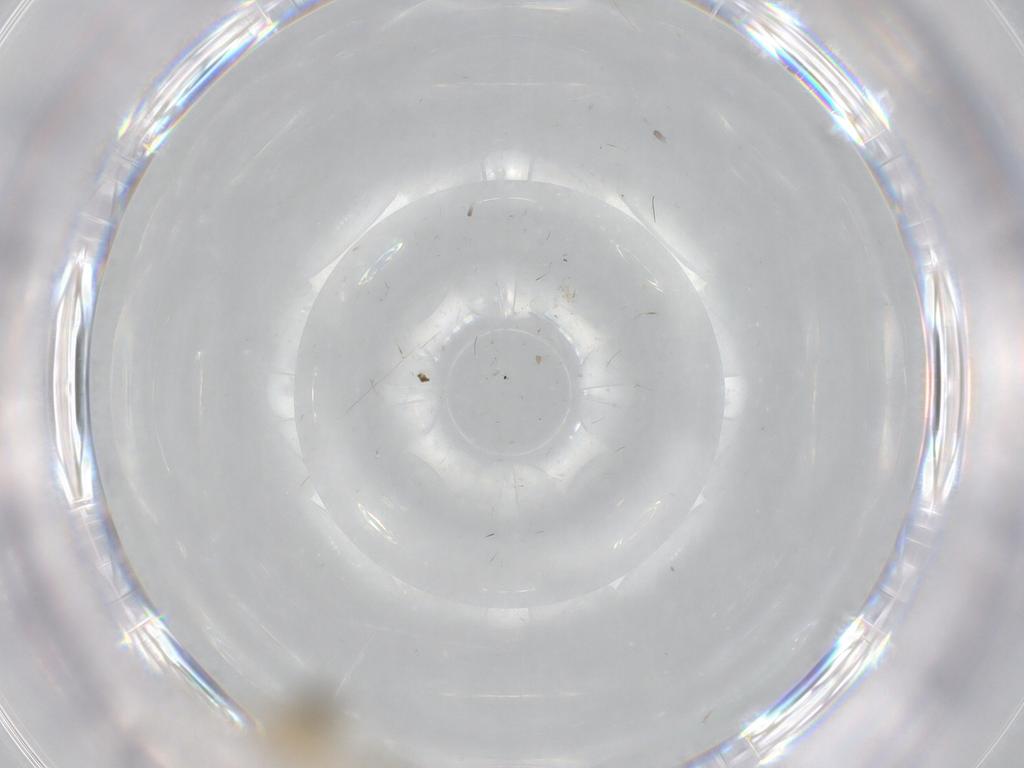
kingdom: Animalia
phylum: Arthropoda
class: Insecta
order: Diptera
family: Chironomidae
